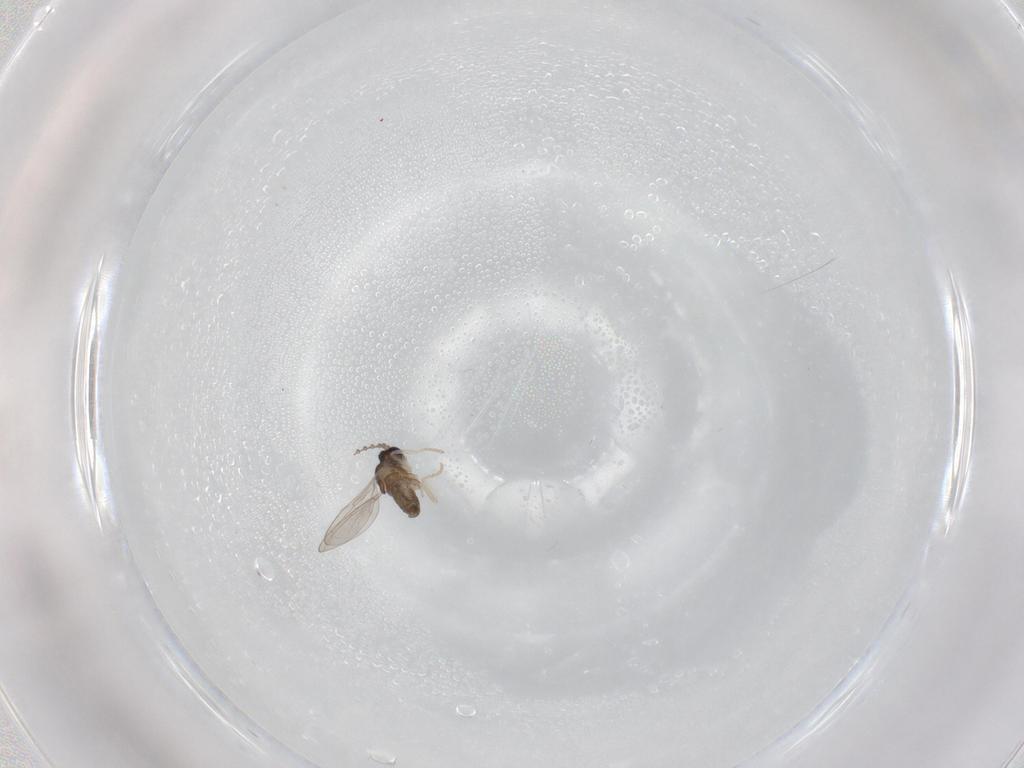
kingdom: Animalia
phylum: Arthropoda
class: Insecta
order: Diptera
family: Cecidomyiidae
